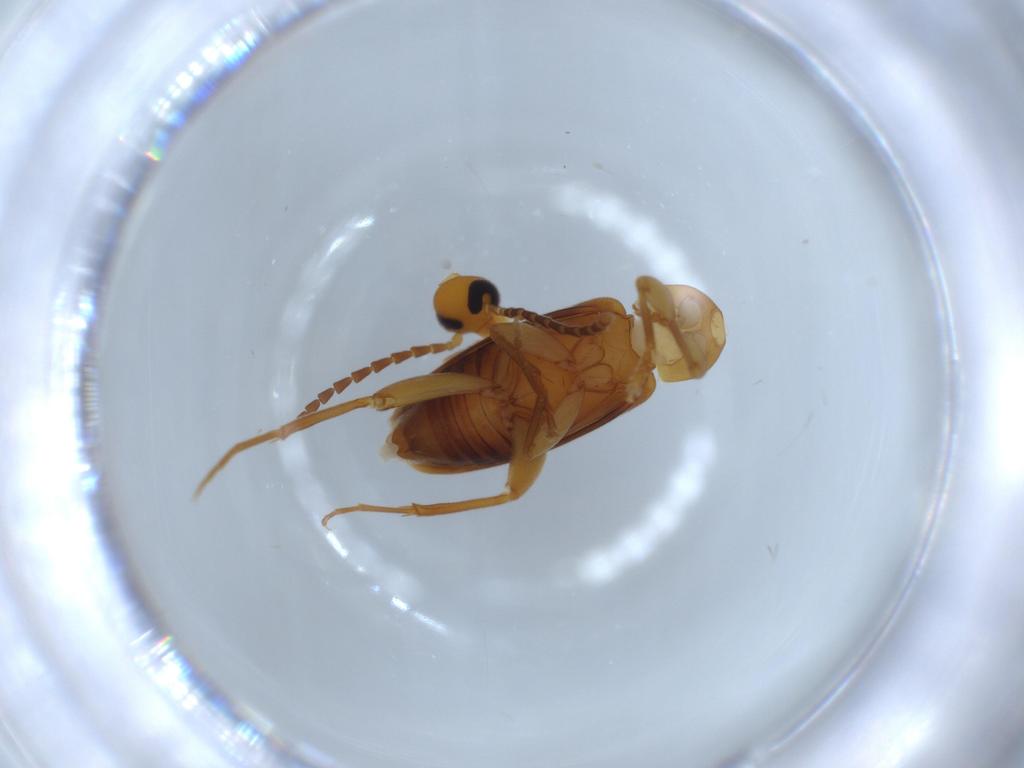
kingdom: Animalia
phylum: Arthropoda
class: Insecta
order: Coleoptera
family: Scraptiidae
